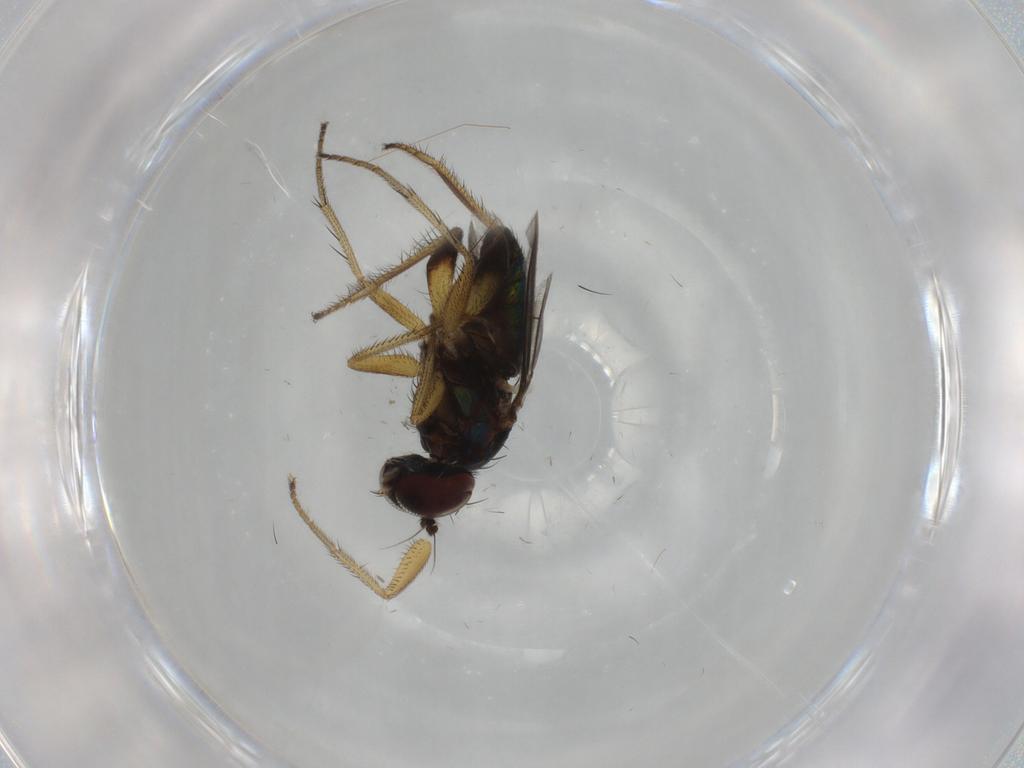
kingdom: Animalia
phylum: Arthropoda
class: Insecta
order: Diptera
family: Dolichopodidae
